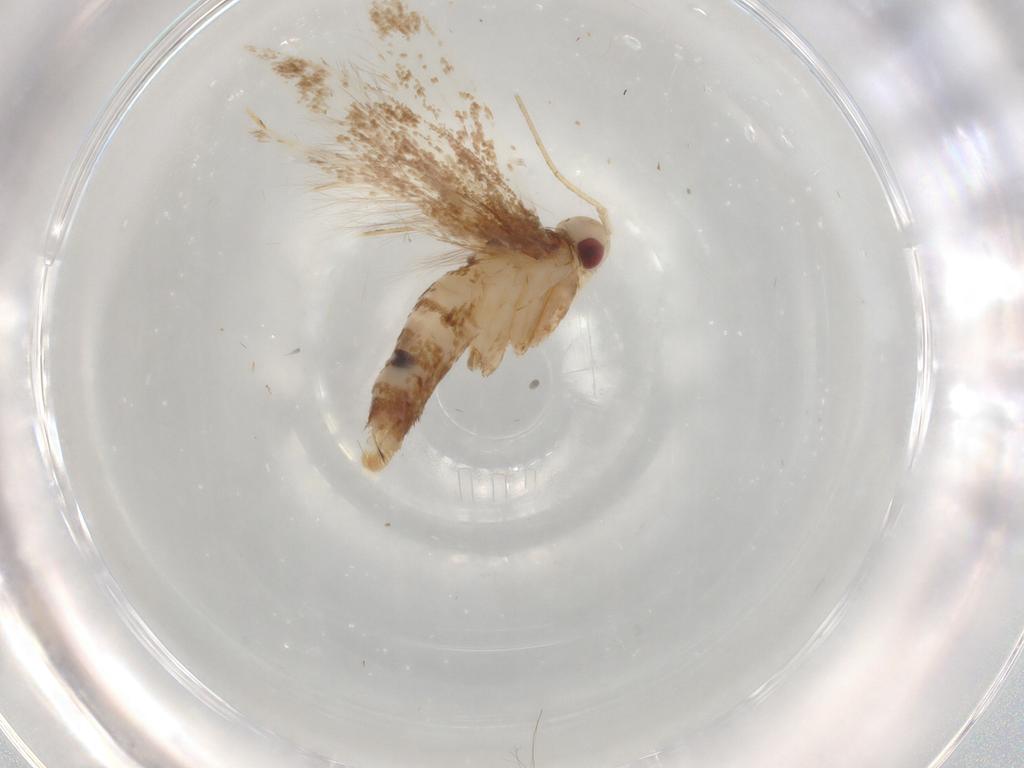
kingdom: Animalia
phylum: Arthropoda
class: Insecta
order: Lepidoptera
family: Cosmopterigidae
